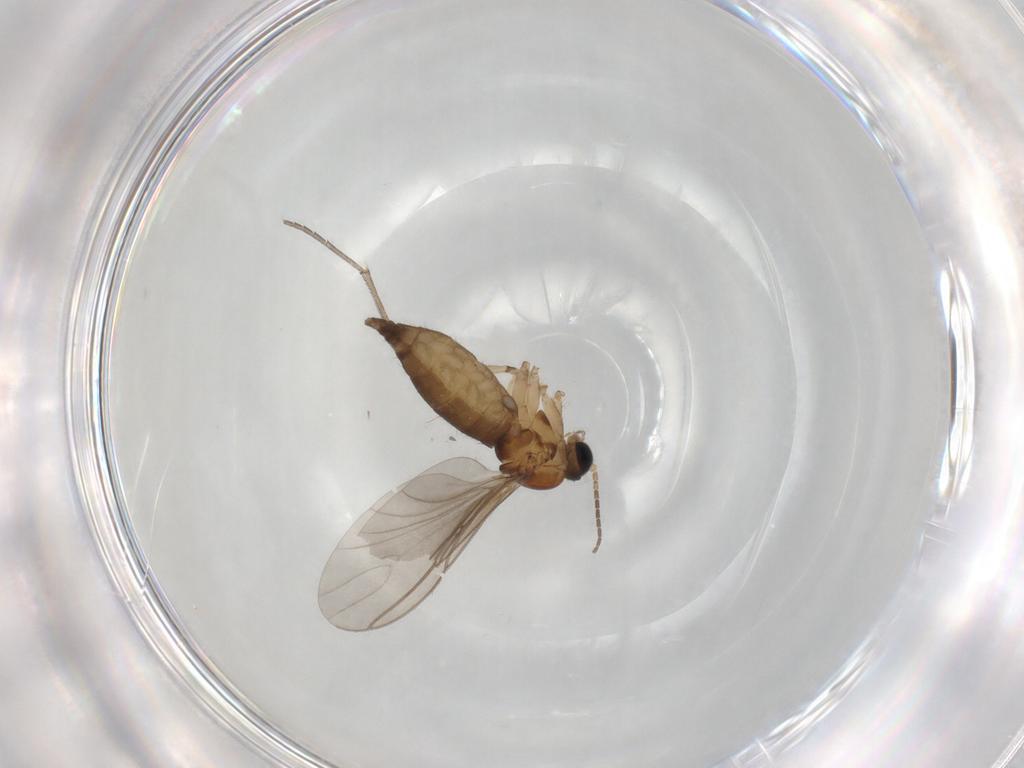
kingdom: Animalia
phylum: Arthropoda
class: Insecta
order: Diptera
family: Sciaridae
